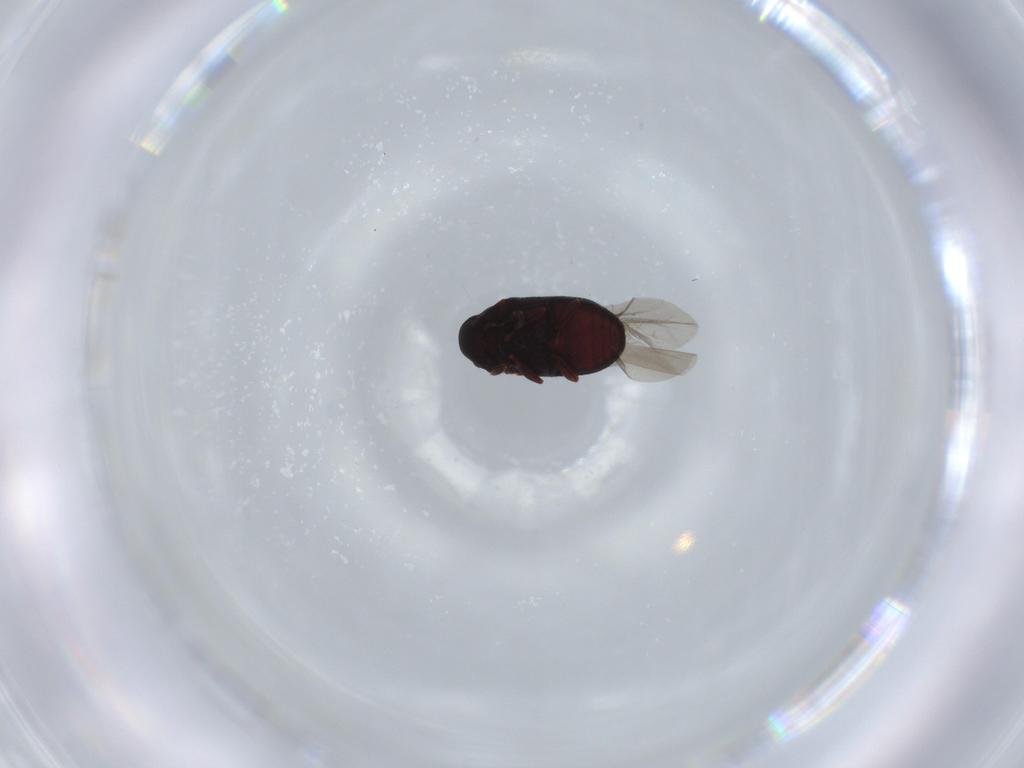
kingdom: Animalia
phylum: Arthropoda
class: Insecta
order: Coleoptera
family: Ptinidae
